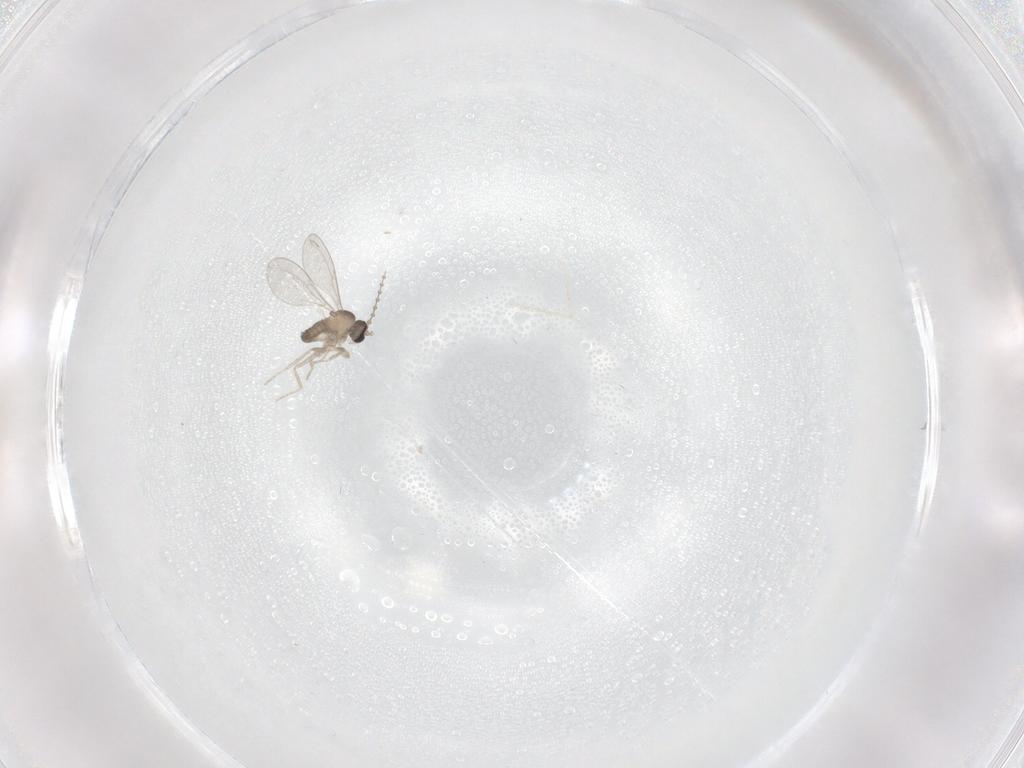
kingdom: Animalia
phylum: Arthropoda
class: Insecta
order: Diptera
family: Cecidomyiidae
